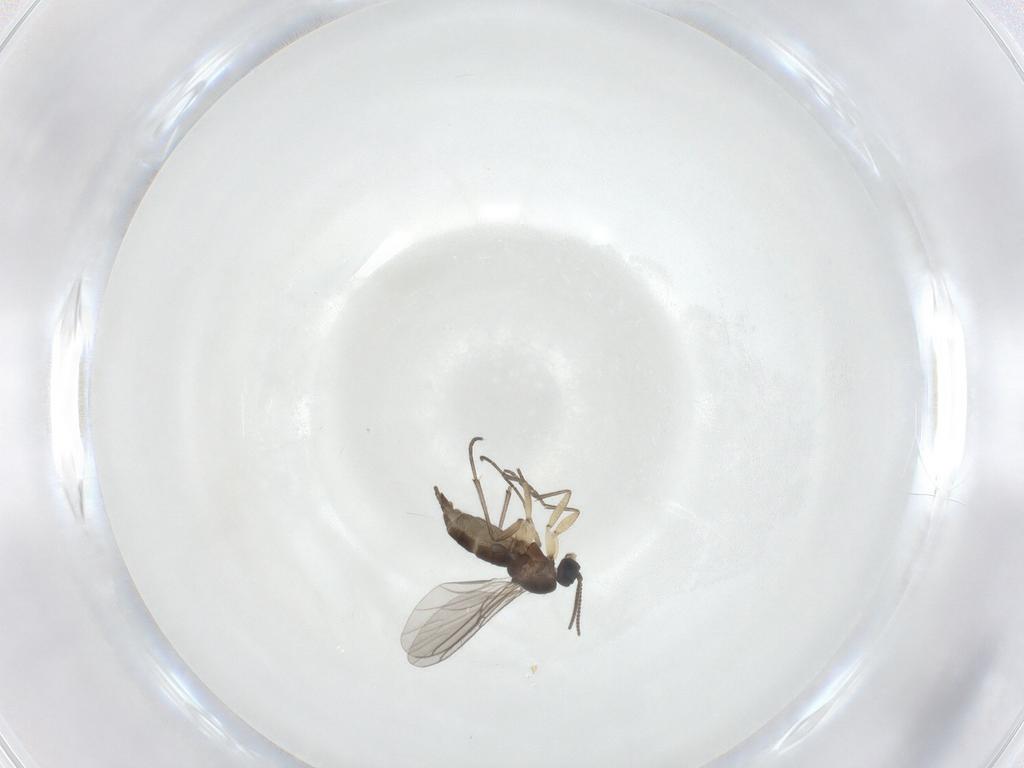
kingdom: Animalia
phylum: Arthropoda
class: Insecta
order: Diptera
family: Sciaridae
